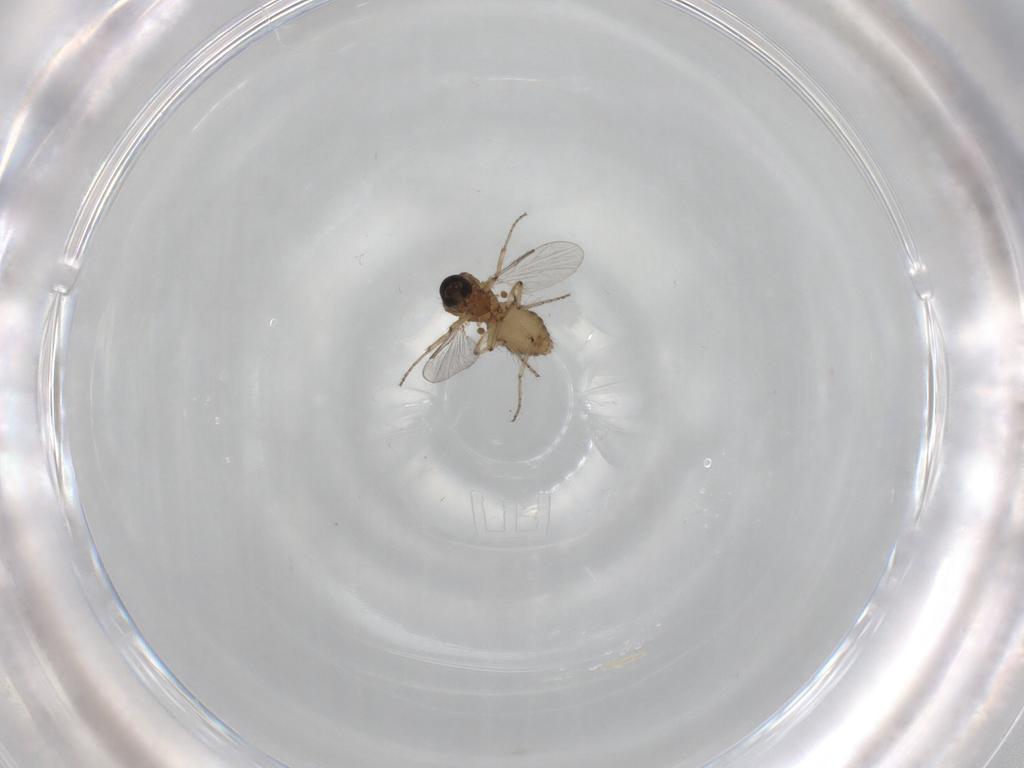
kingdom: Animalia
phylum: Arthropoda
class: Insecta
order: Diptera
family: Ceratopogonidae
